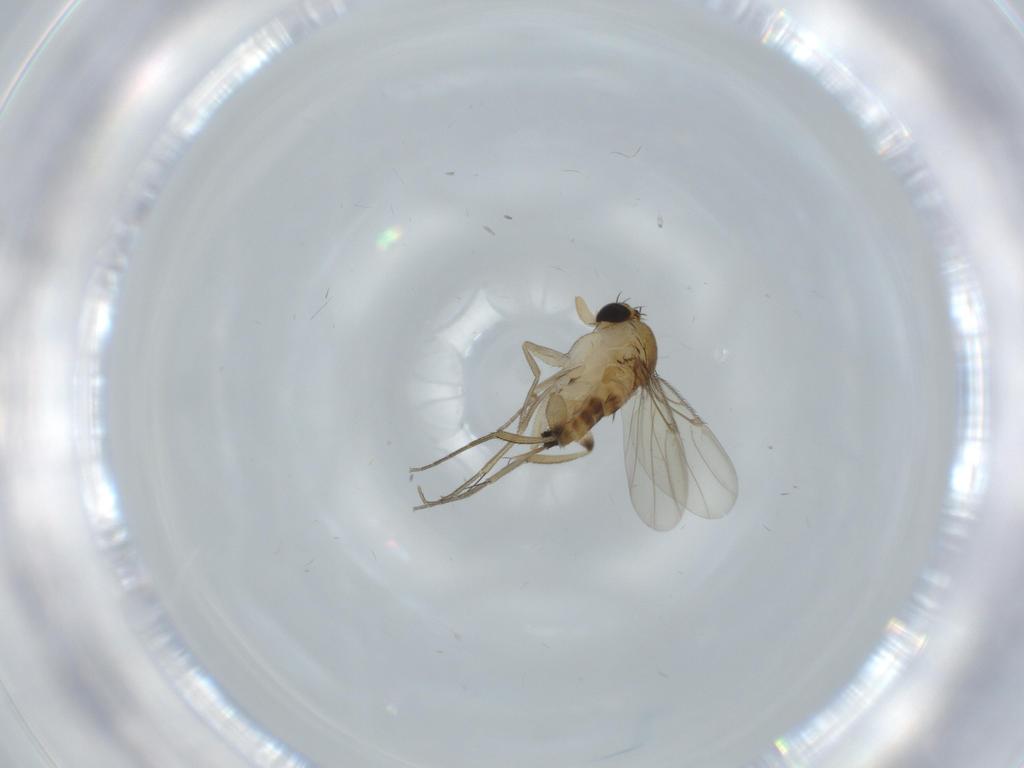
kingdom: Animalia
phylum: Arthropoda
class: Insecta
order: Diptera
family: Phoridae
